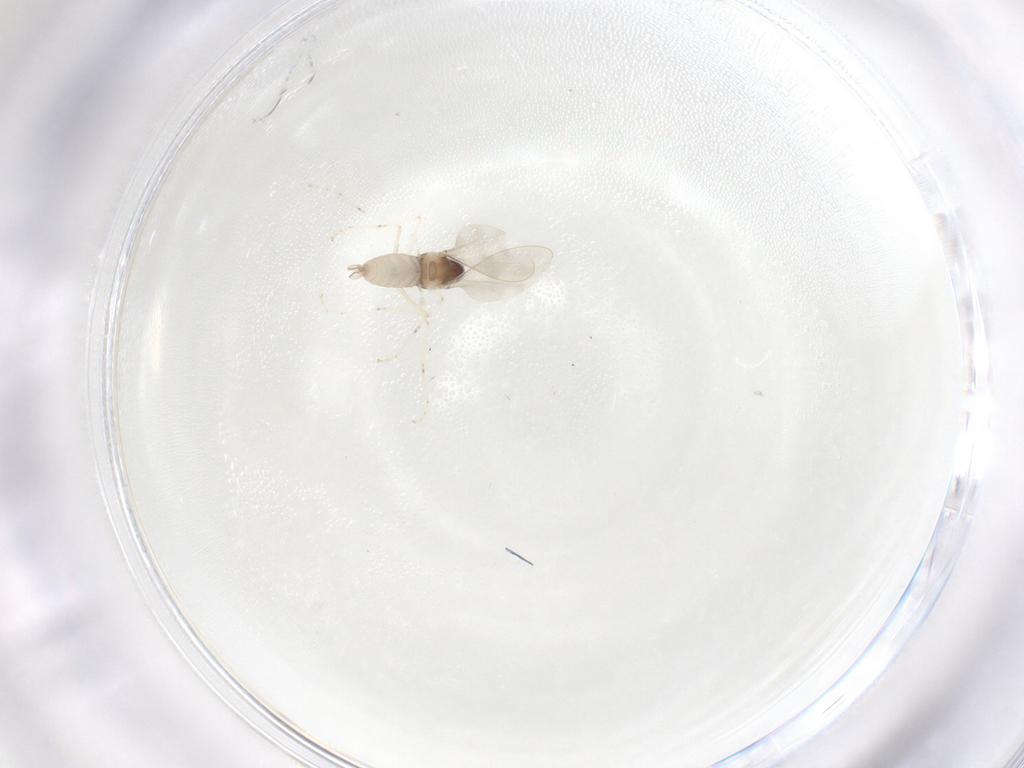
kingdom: Animalia
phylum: Arthropoda
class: Insecta
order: Diptera
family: Cecidomyiidae
